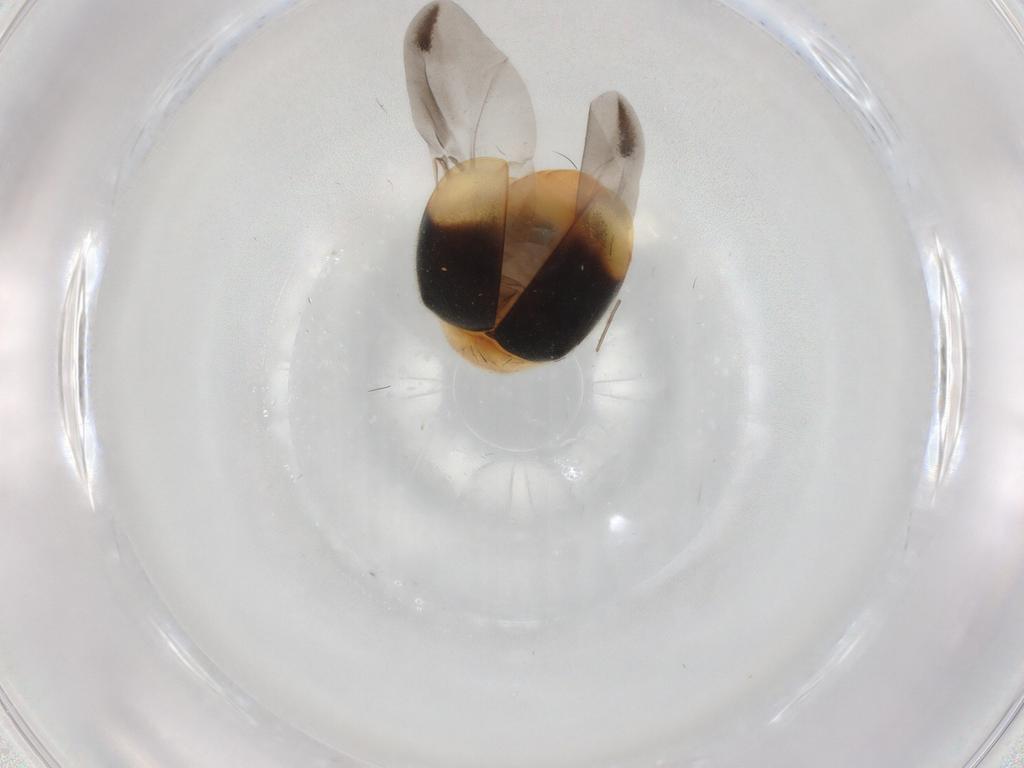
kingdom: Animalia
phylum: Arthropoda
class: Insecta
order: Coleoptera
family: Coccinellidae
